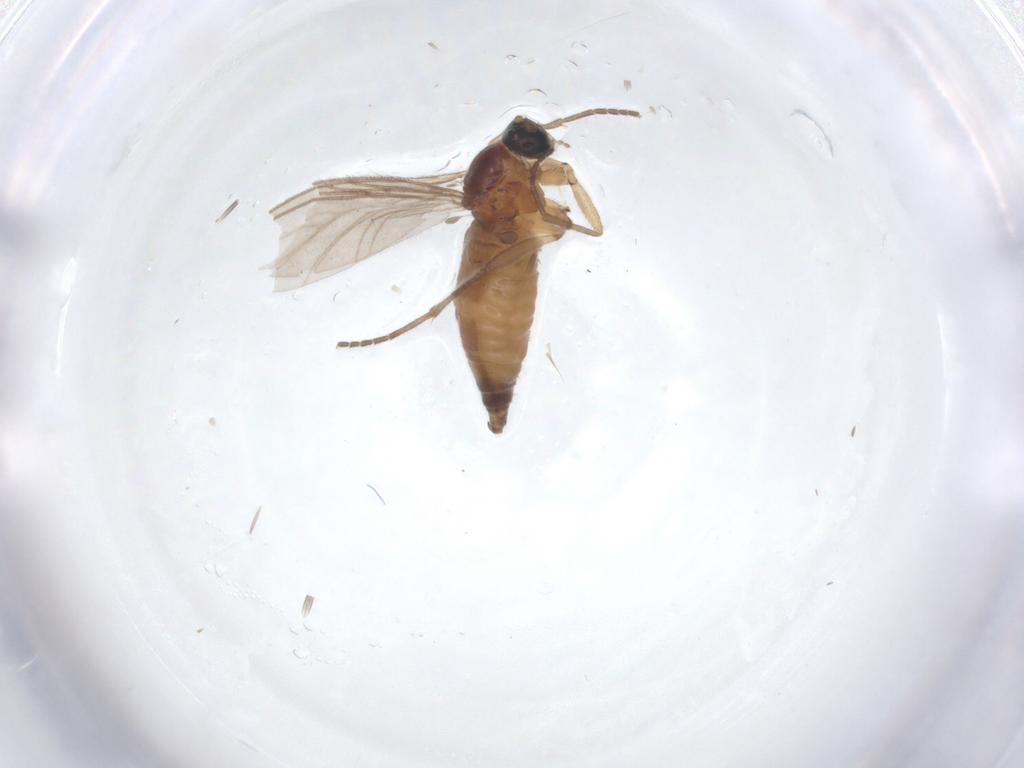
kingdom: Animalia
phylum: Arthropoda
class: Insecta
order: Diptera
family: Sciaridae
